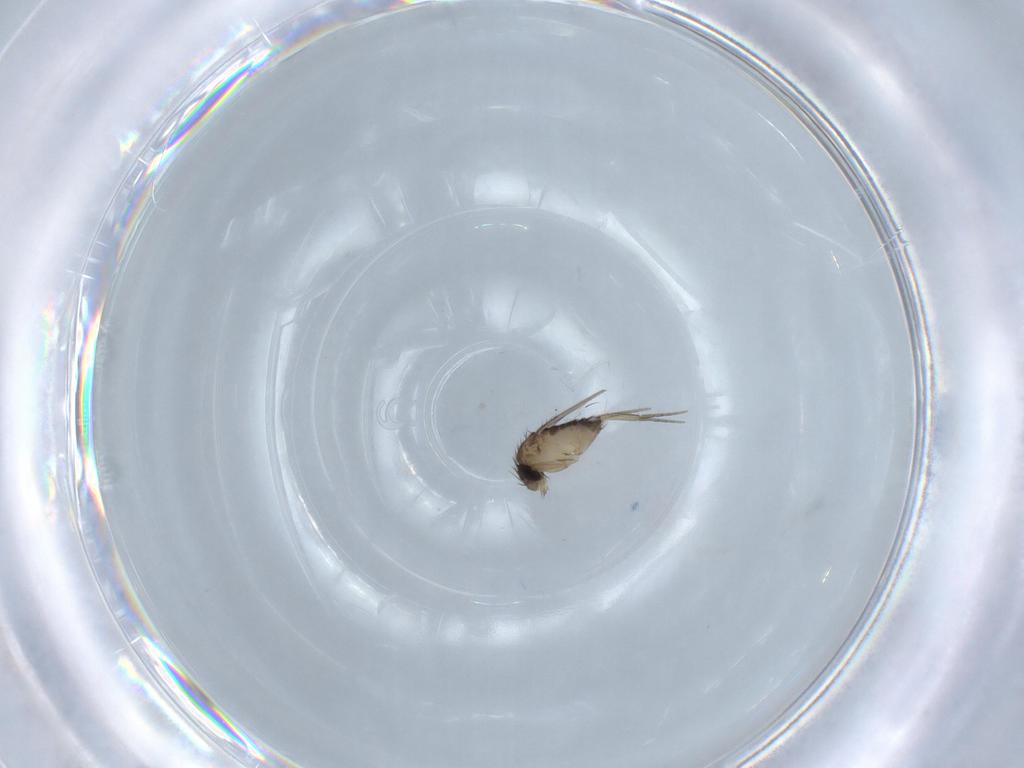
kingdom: Animalia
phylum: Arthropoda
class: Insecta
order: Diptera
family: Phoridae
